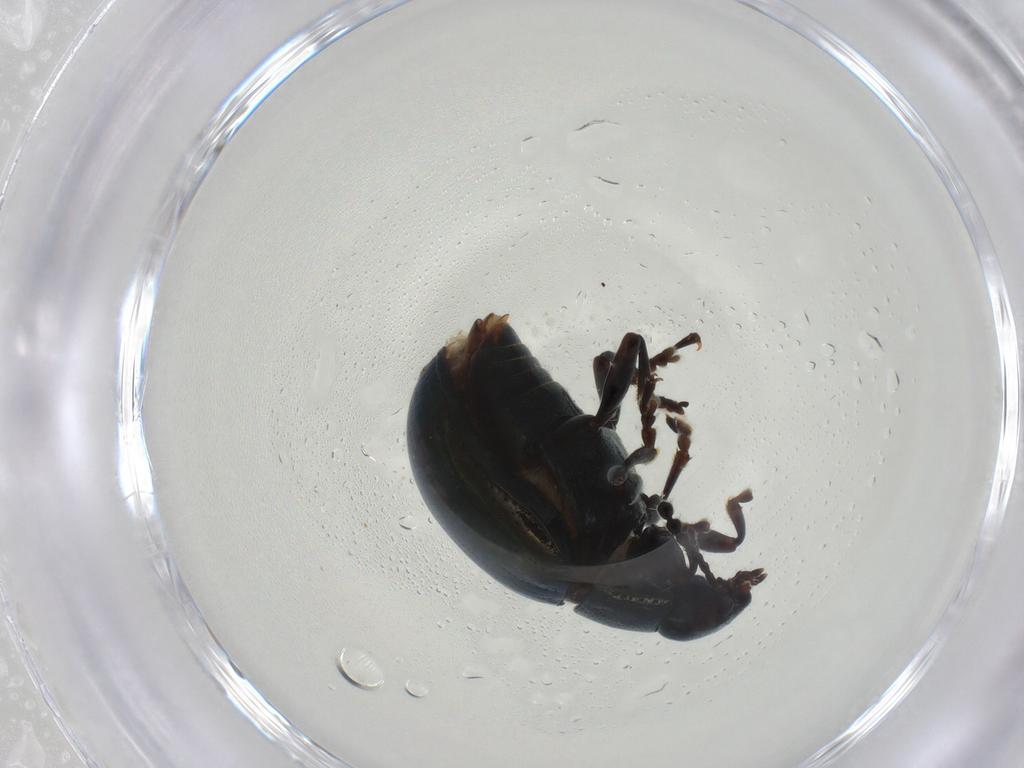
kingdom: Animalia
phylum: Arthropoda
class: Insecta
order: Coleoptera
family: Chrysomelidae
